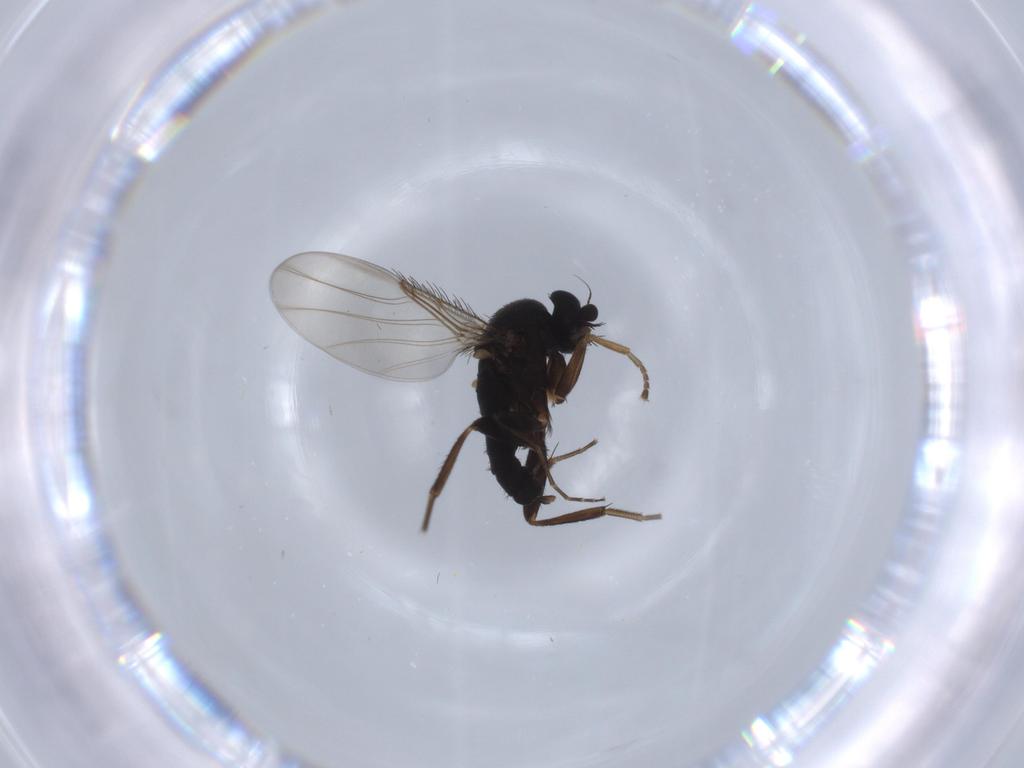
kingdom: Animalia
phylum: Arthropoda
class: Insecta
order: Diptera
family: Phoridae
